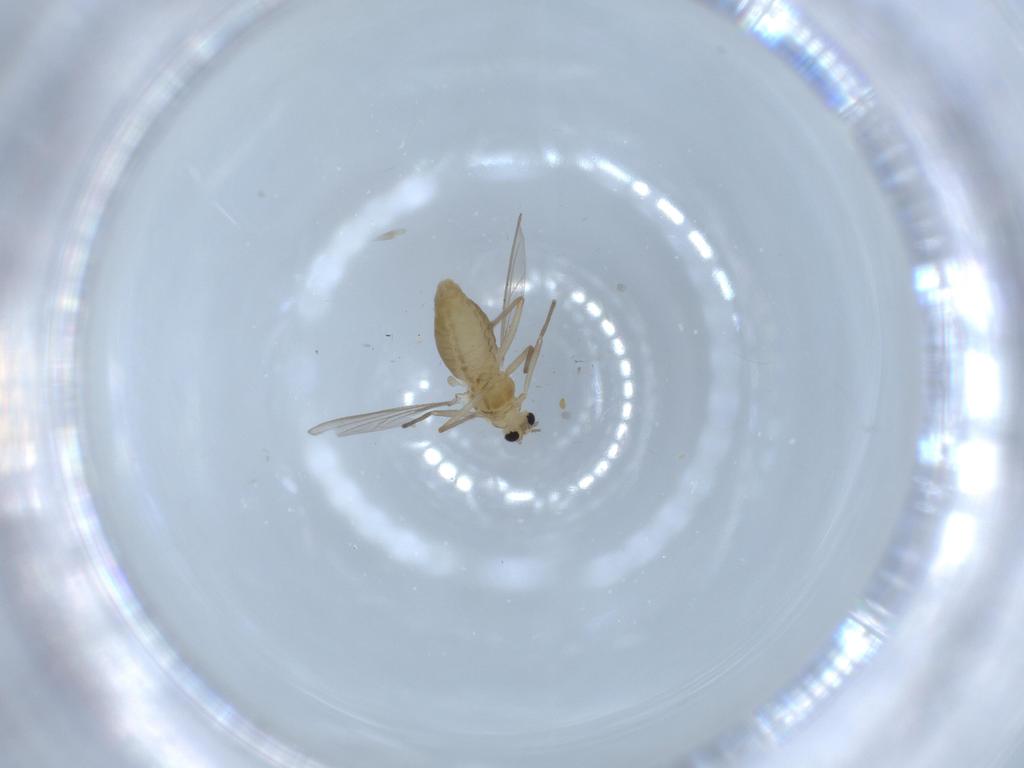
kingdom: Animalia
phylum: Arthropoda
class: Insecta
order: Diptera
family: Chironomidae
